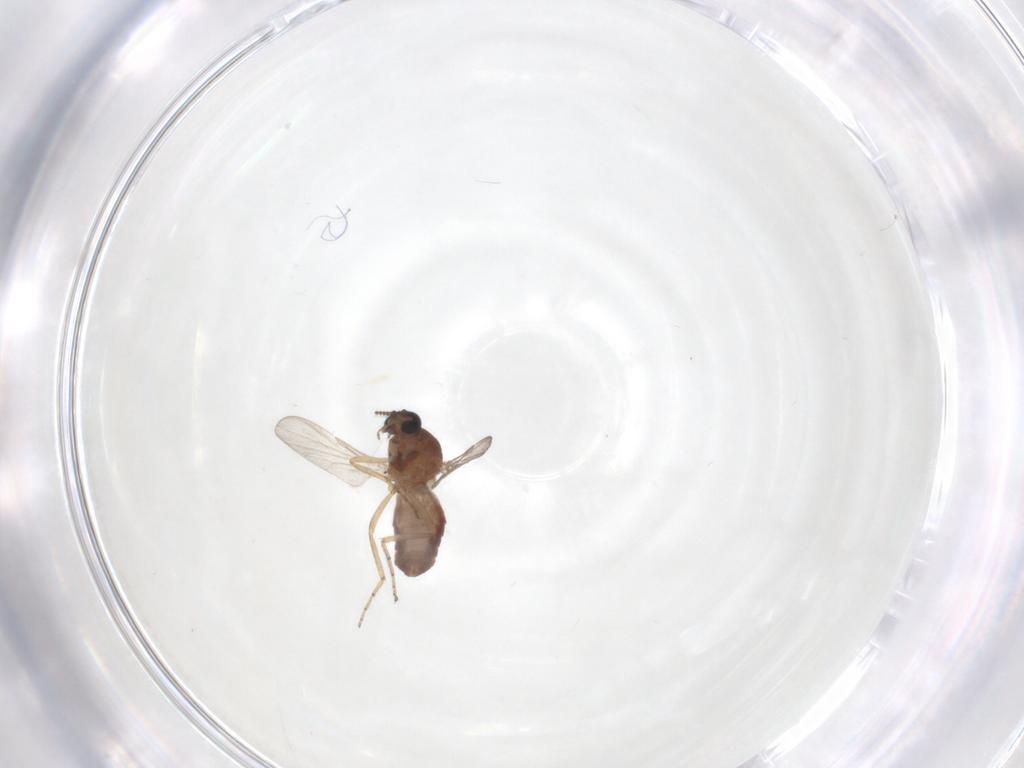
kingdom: Animalia
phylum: Arthropoda
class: Insecta
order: Diptera
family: Ceratopogonidae
